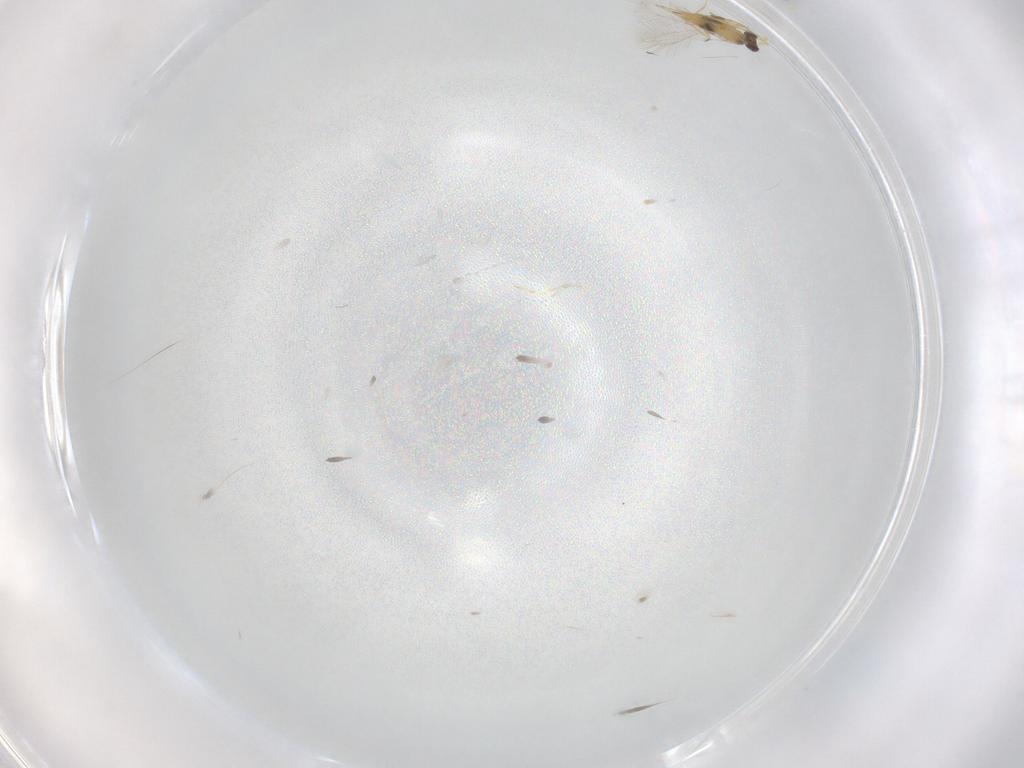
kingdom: Animalia
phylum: Arthropoda
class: Insecta
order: Hymenoptera
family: Mymaridae
